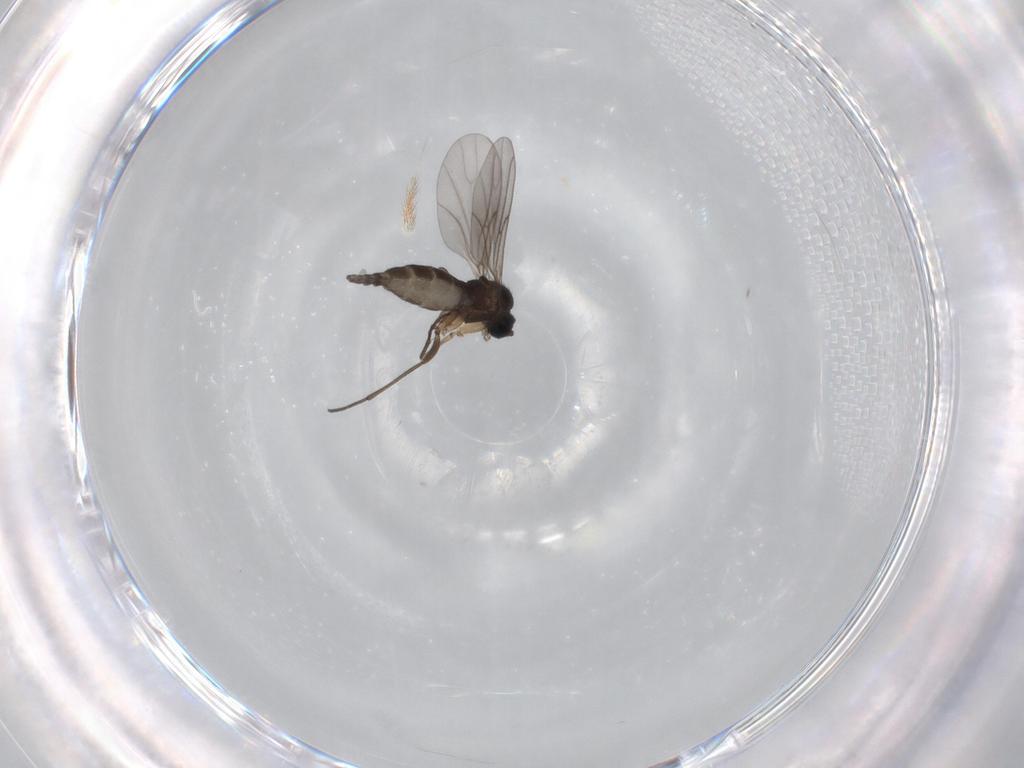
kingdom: Animalia
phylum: Arthropoda
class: Insecta
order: Diptera
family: Sciaridae
